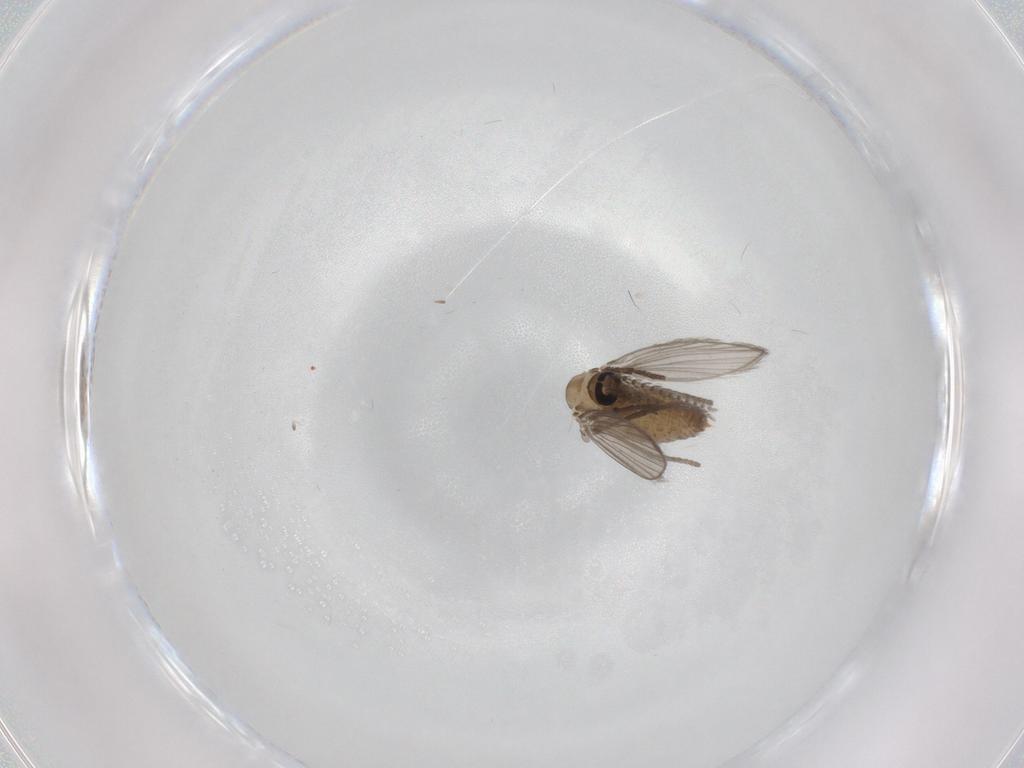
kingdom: Animalia
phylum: Arthropoda
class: Insecta
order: Diptera
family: Psychodidae
